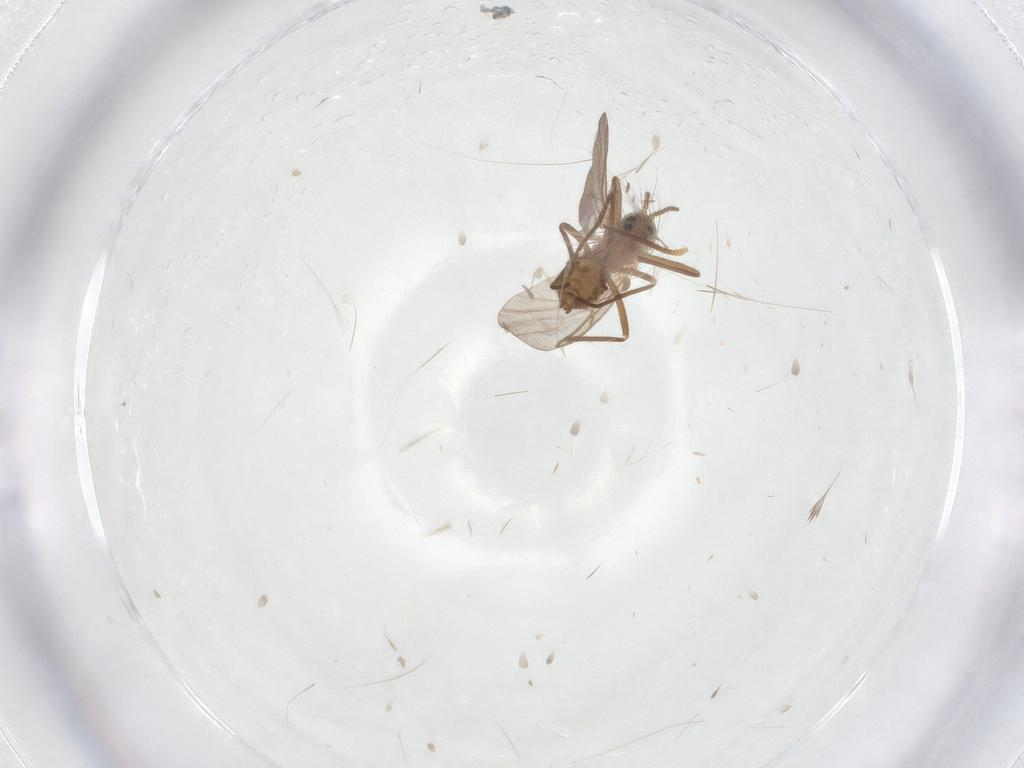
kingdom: Animalia
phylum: Arthropoda
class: Insecta
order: Diptera
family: Cecidomyiidae
